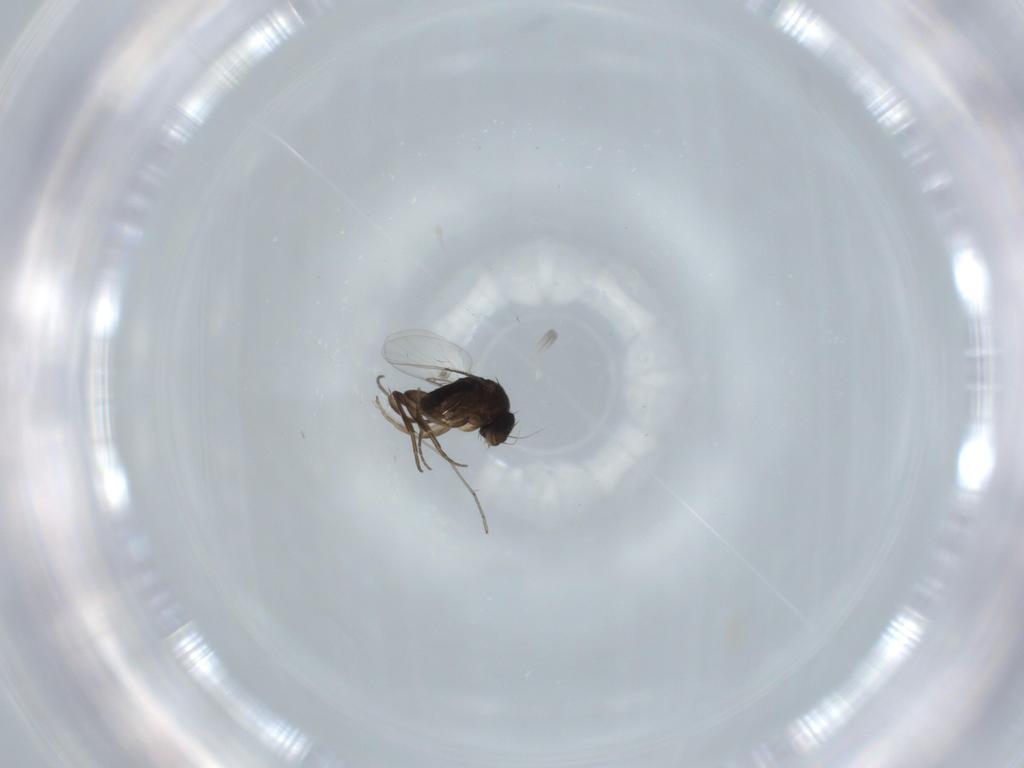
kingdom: Animalia
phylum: Arthropoda
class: Insecta
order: Diptera
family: Phoridae
